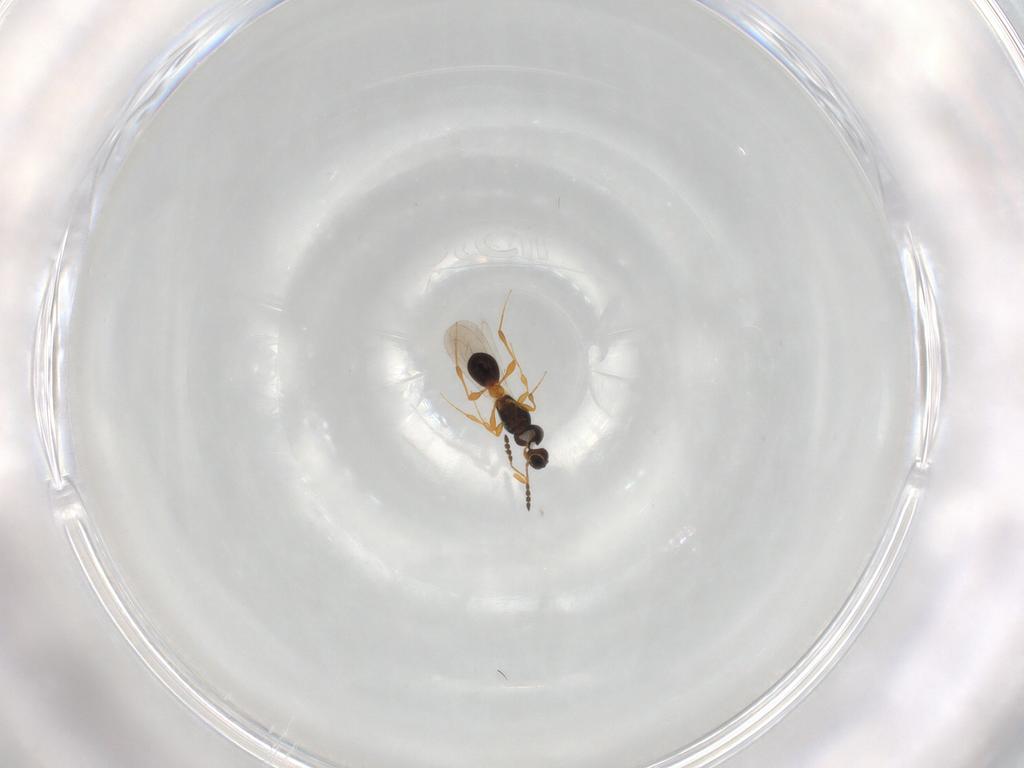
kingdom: Animalia
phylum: Arthropoda
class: Insecta
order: Hymenoptera
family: Platygastridae
